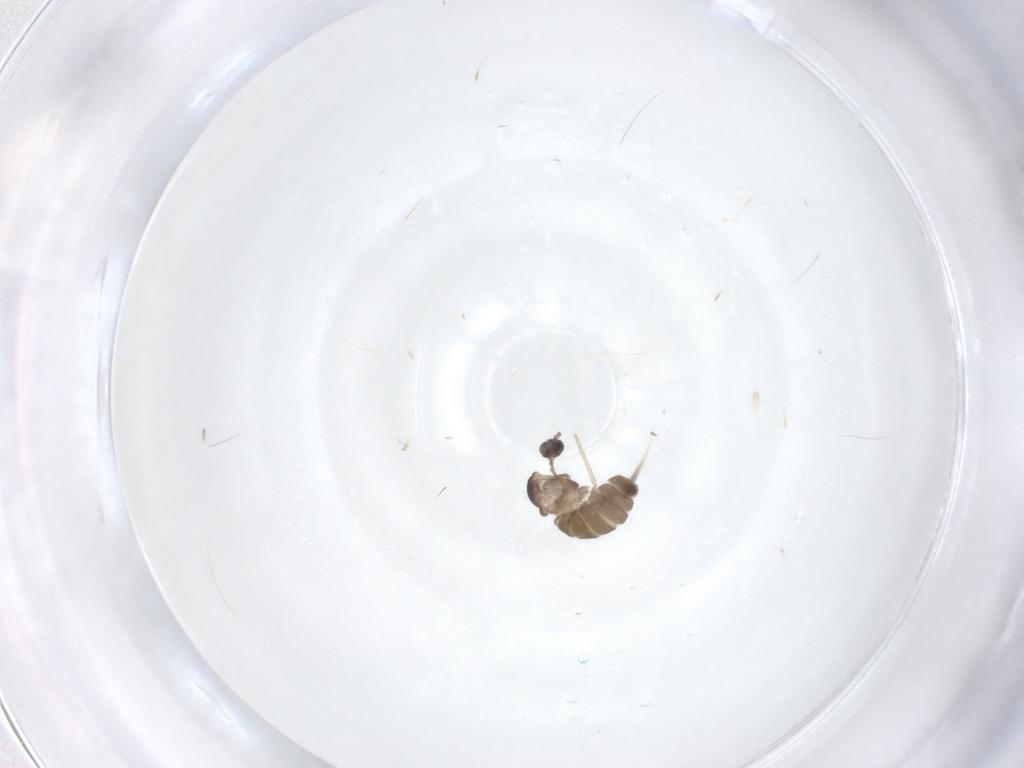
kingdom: Animalia
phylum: Arthropoda
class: Insecta
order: Diptera
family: Cecidomyiidae
